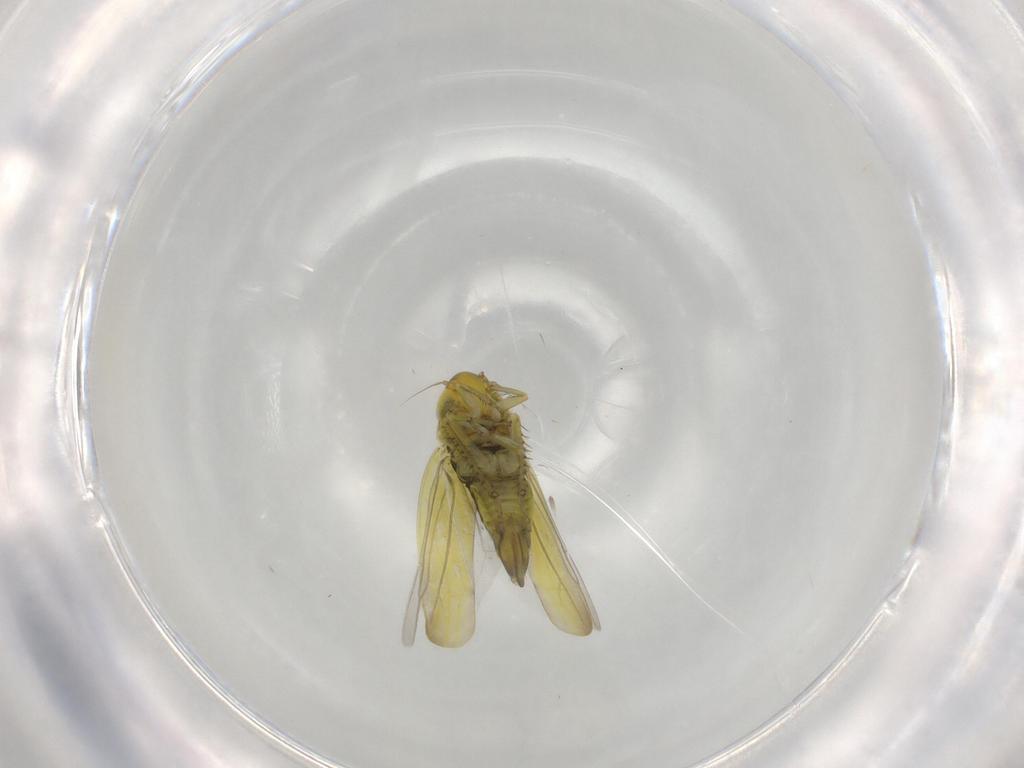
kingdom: Animalia
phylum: Arthropoda
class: Insecta
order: Hemiptera
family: Cicadellidae
